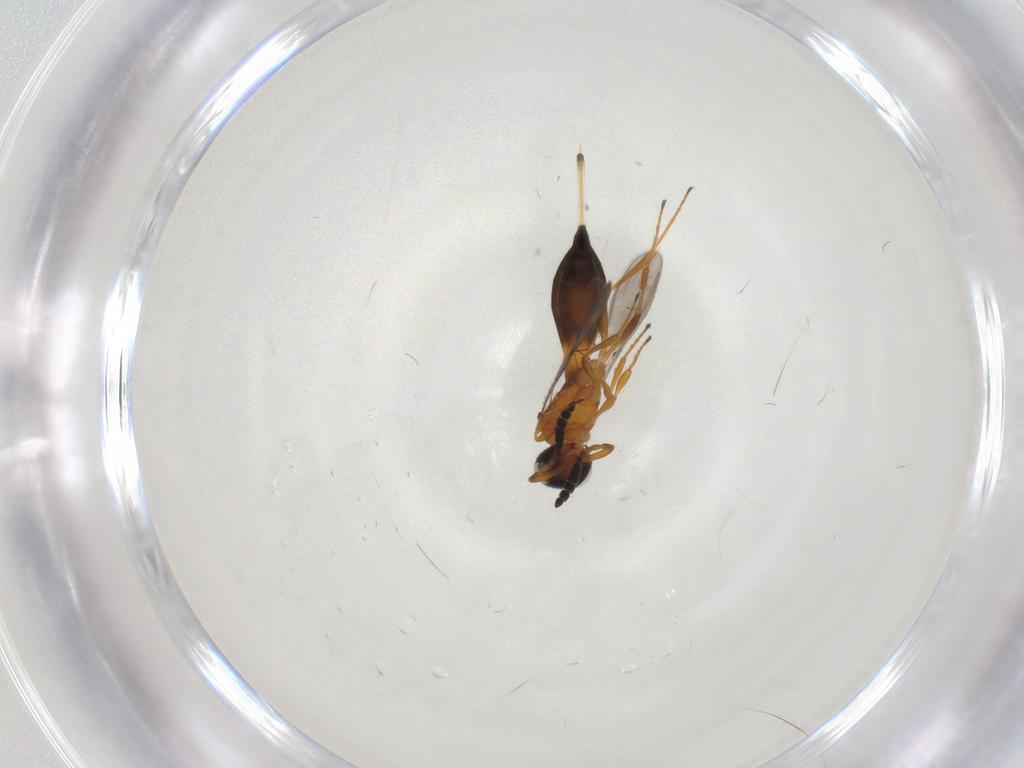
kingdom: Animalia
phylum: Arthropoda
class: Insecta
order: Hymenoptera
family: Scelionidae
